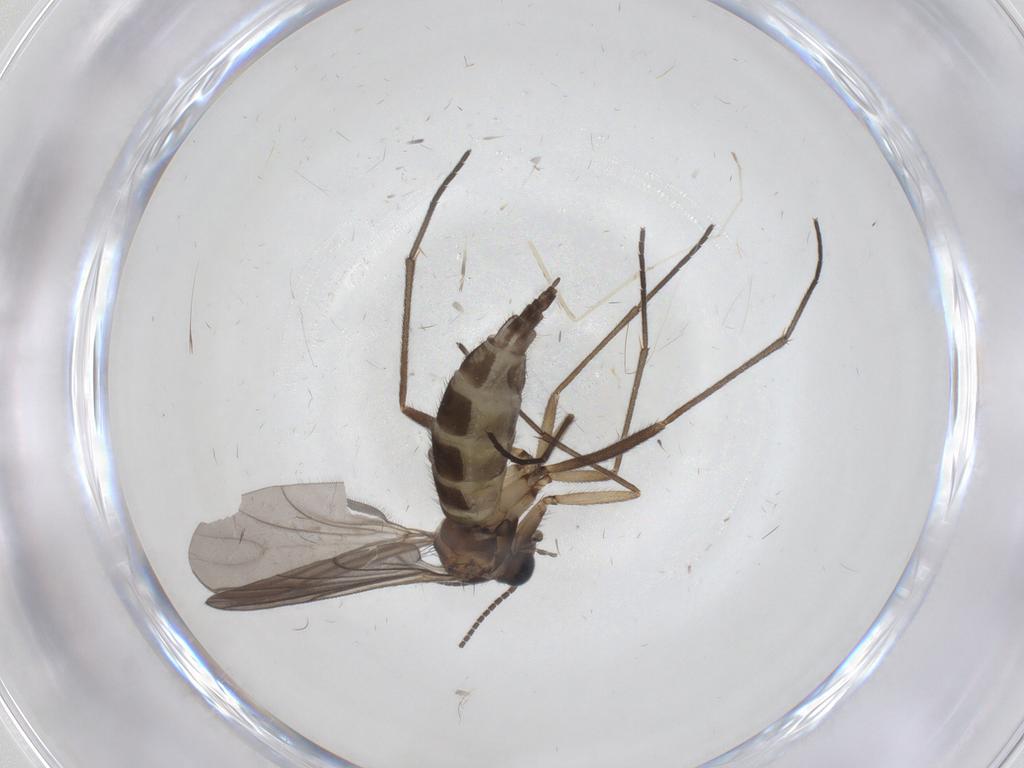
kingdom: Animalia
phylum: Arthropoda
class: Insecta
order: Diptera
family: Sciaridae
